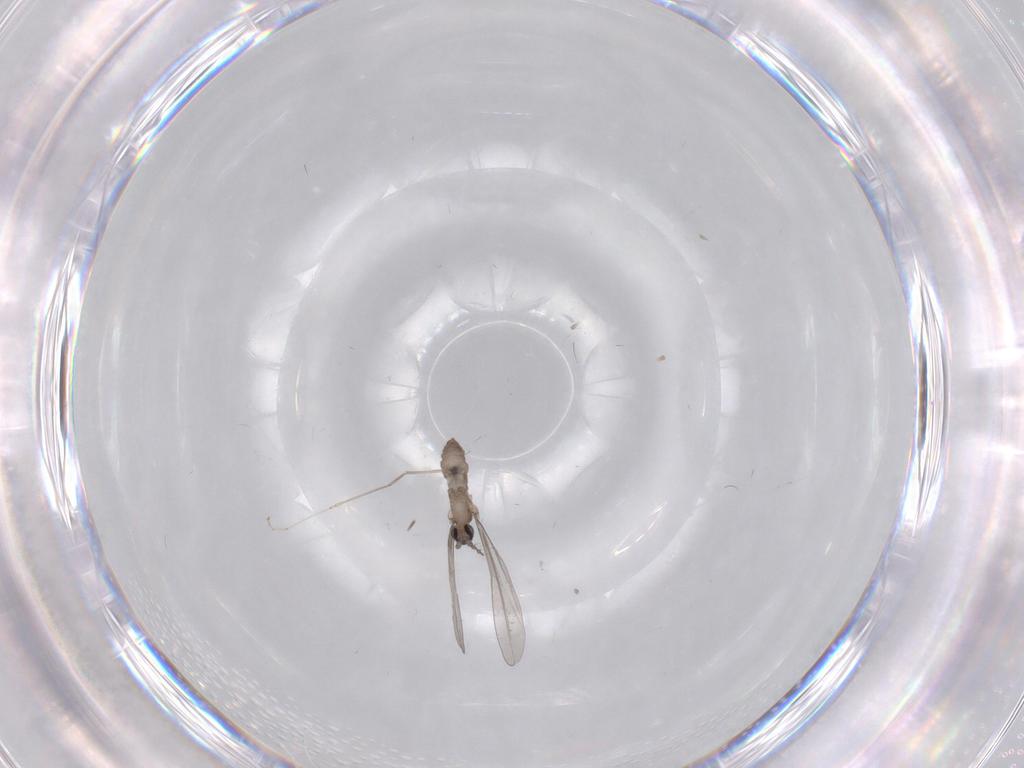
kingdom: Animalia
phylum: Arthropoda
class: Insecta
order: Diptera
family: Cecidomyiidae
